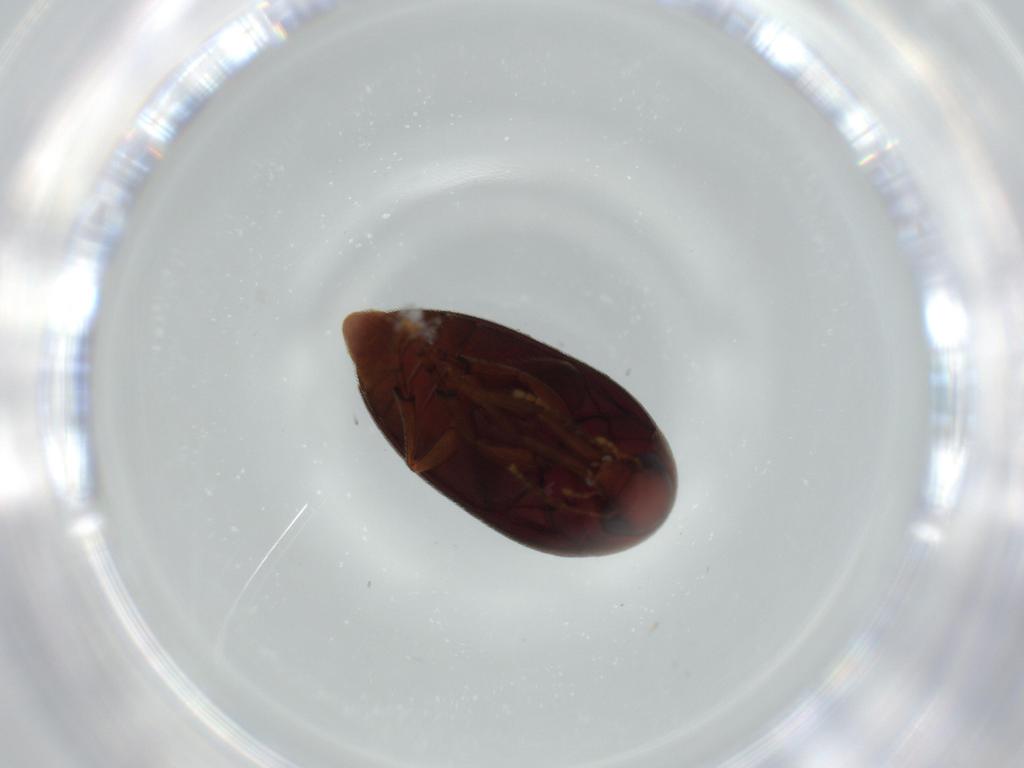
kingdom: Animalia
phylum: Arthropoda
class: Insecta
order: Coleoptera
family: Eucinetidae
